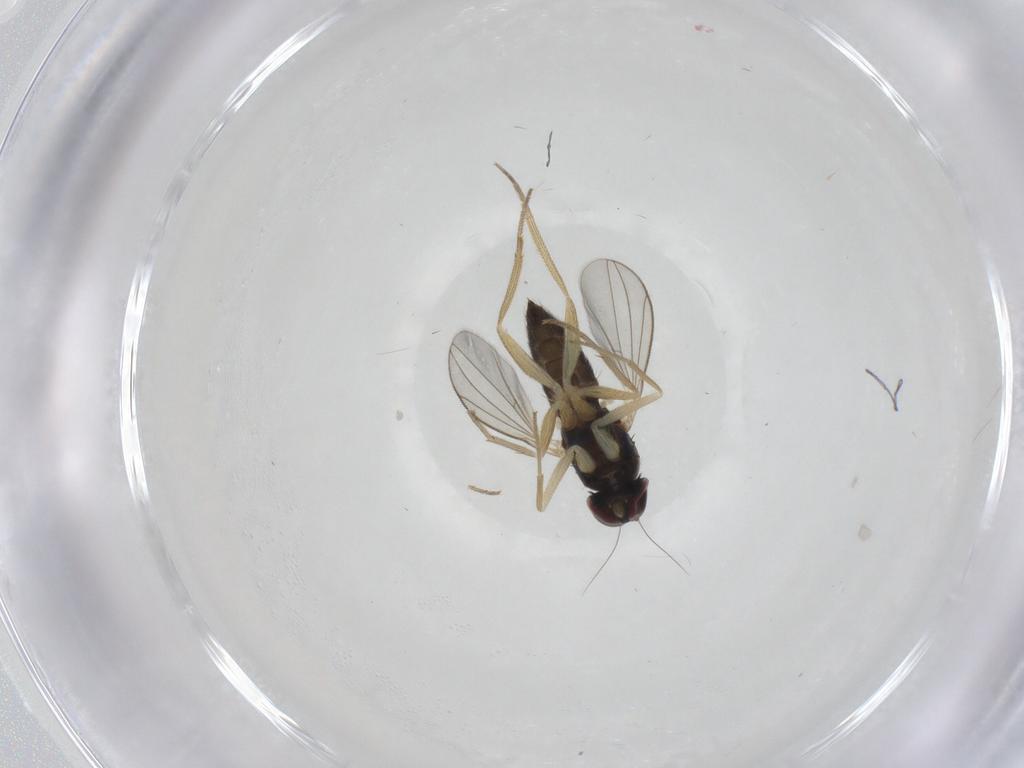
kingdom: Animalia
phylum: Arthropoda
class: Insecta
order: Diptera
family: Dolichopodidae
